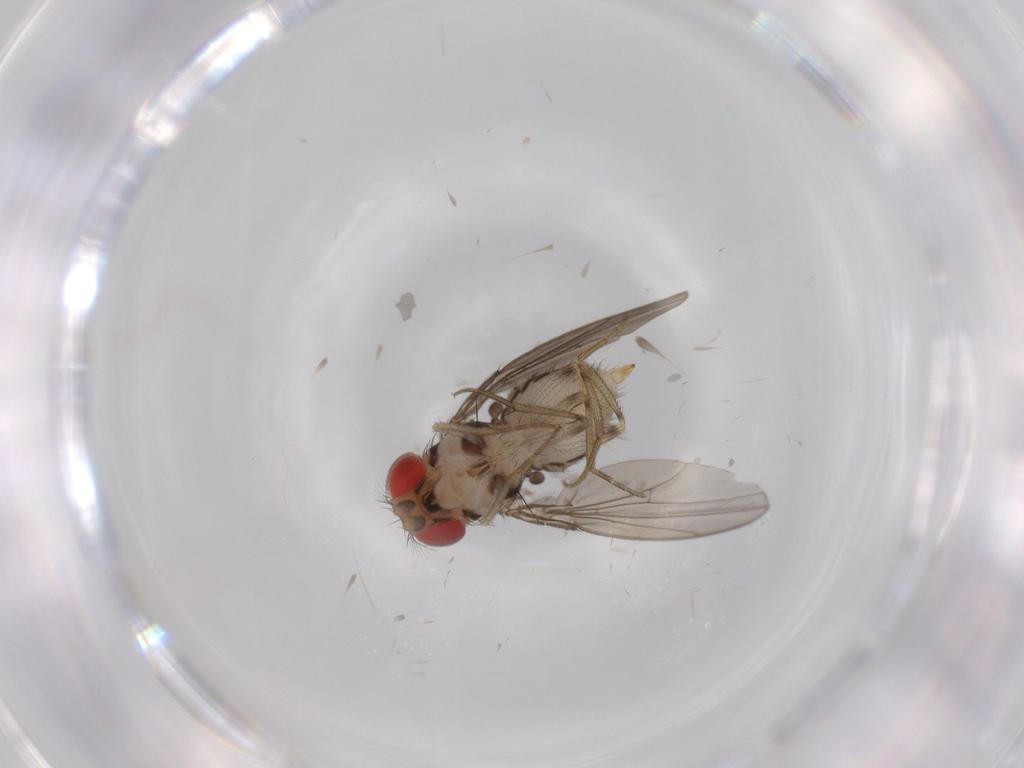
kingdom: Animalia
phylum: Arthropoda
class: Insecta
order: Diptera
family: Drosophilidae
